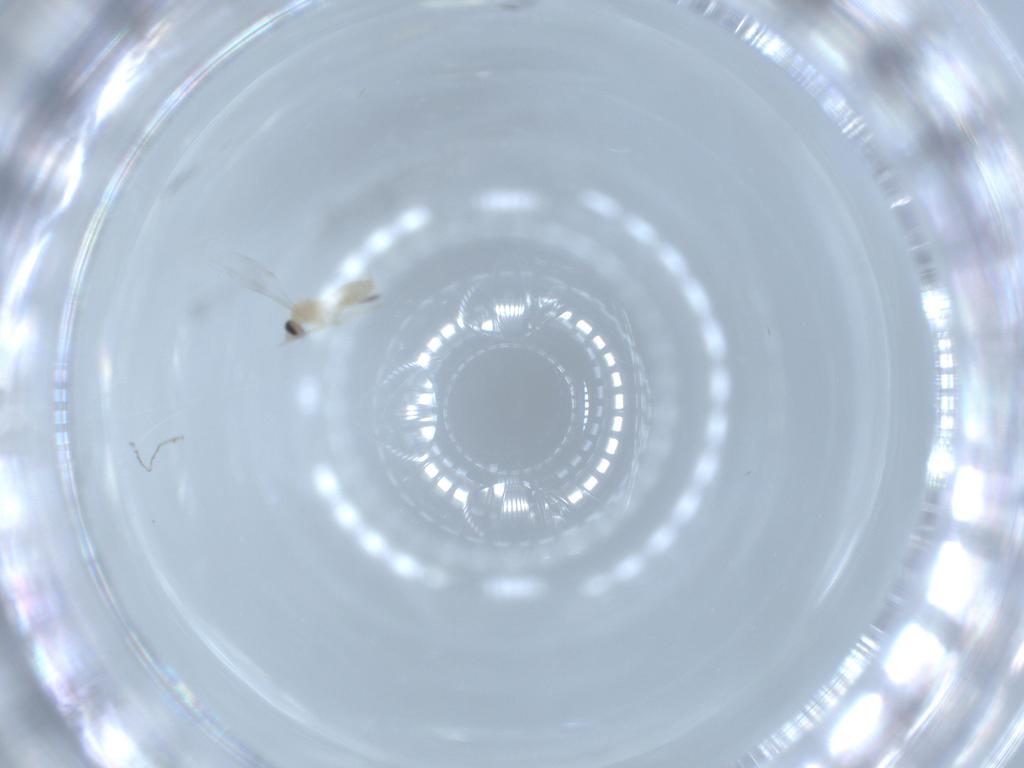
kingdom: Animalia
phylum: Arthropoda
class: Insecta
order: Diptera
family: Cecidomyiidae
